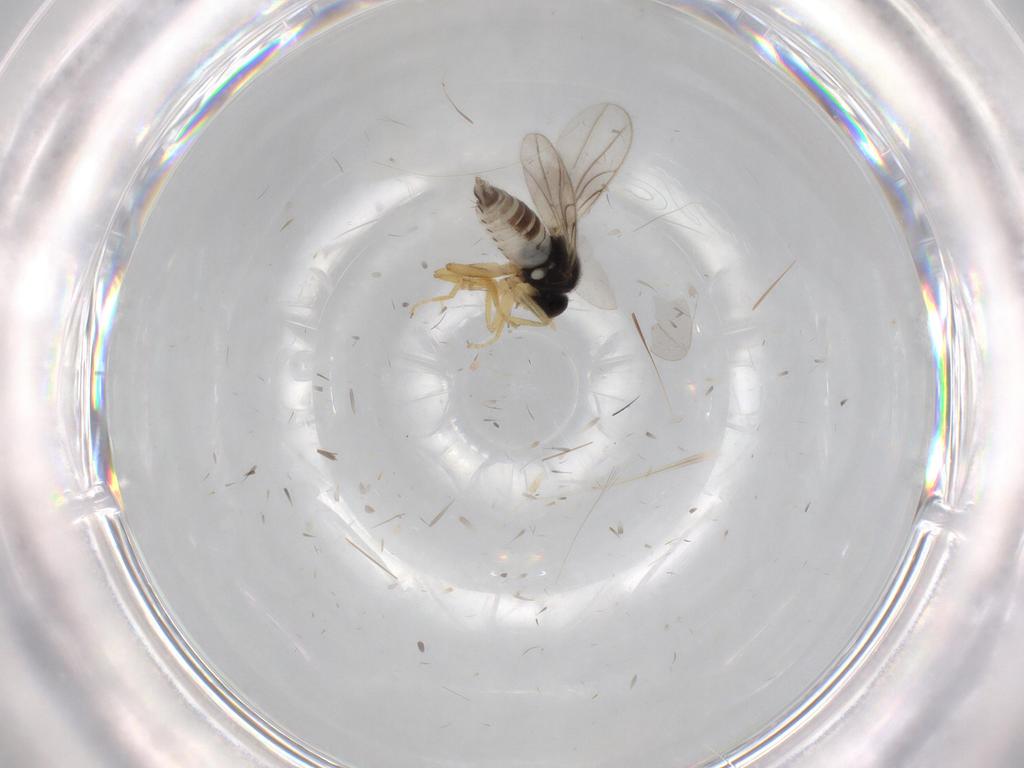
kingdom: Animalia
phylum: Arthropoda
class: Insecta
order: Diptera
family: Hybotidae
